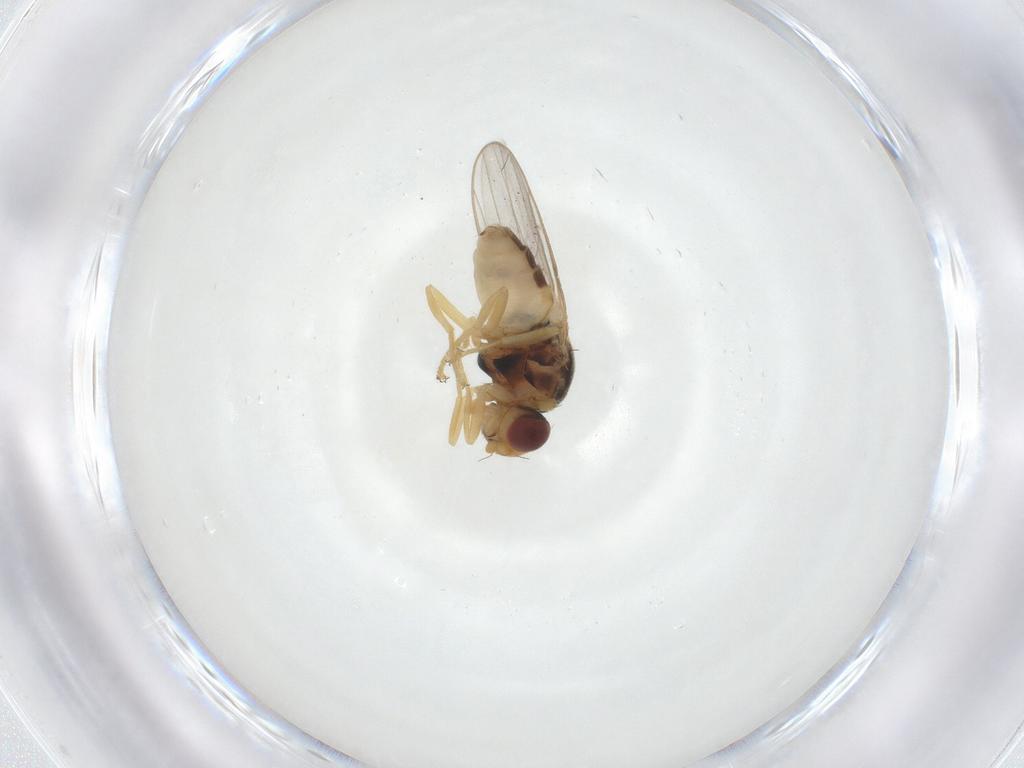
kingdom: Animalia
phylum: Arthropoda
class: Insecta
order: Diptera
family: Chloropidae
